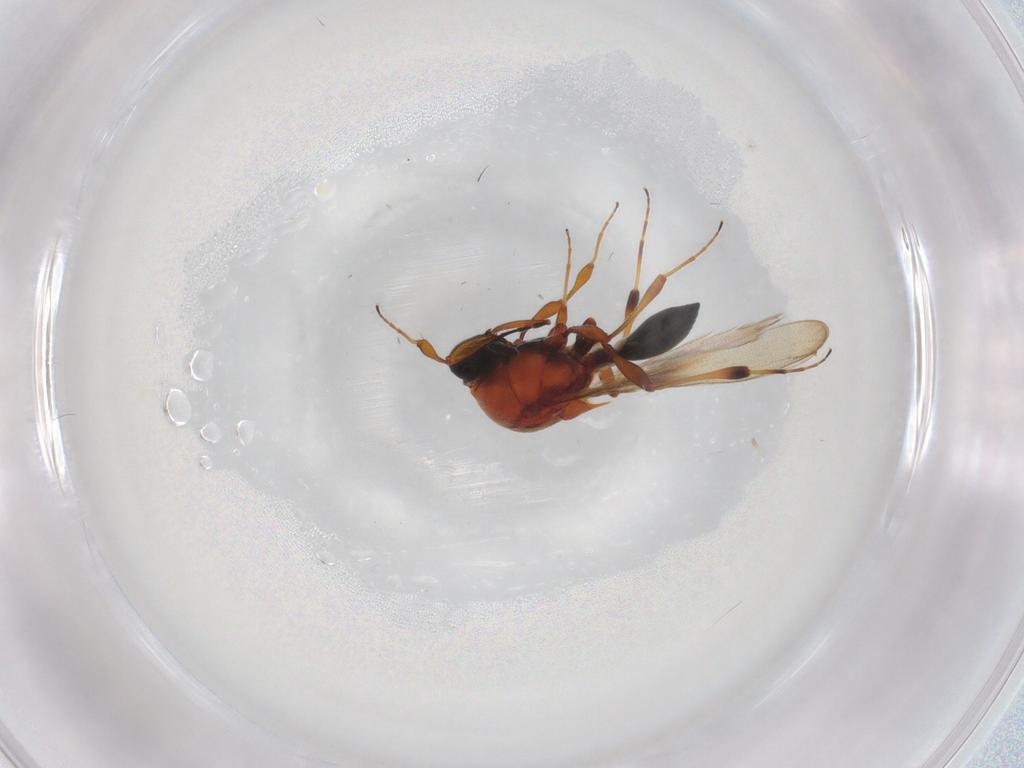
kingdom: Animalia
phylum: Arthropoda
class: Insecta
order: Hymenoptera
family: Platygastridae
